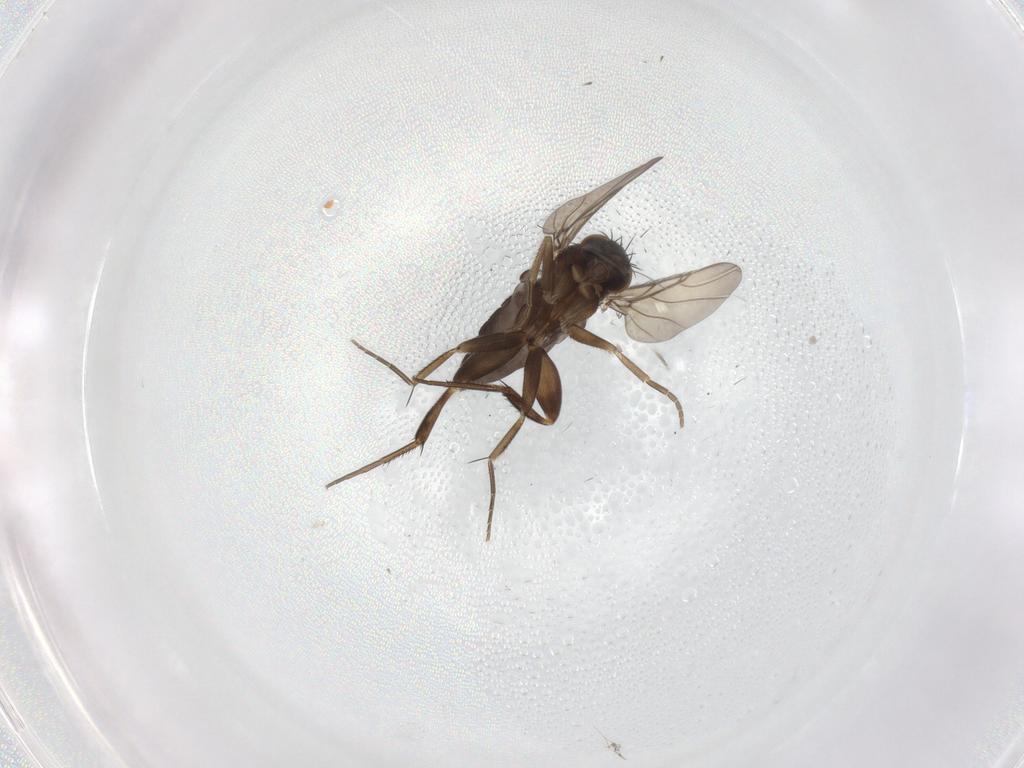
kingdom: Animalia
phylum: Arthropoda
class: Insecta
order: Diptera
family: Phoridae
